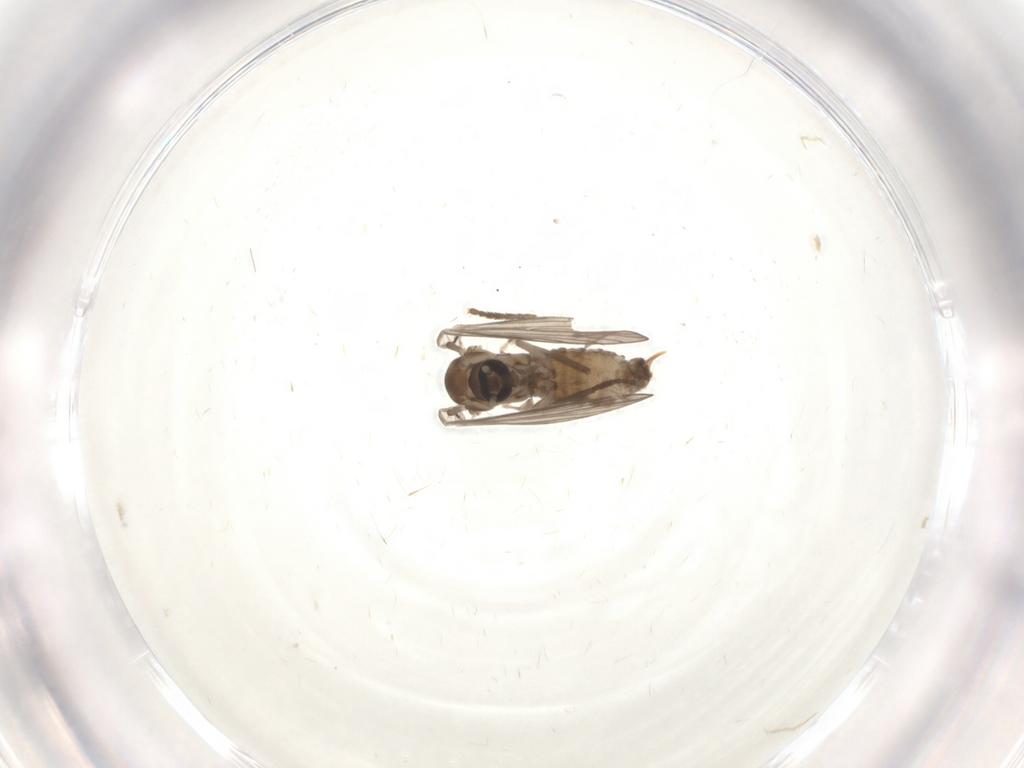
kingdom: Animalia
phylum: Arthropoda
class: Insecta
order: Diptera
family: Psychodidae
